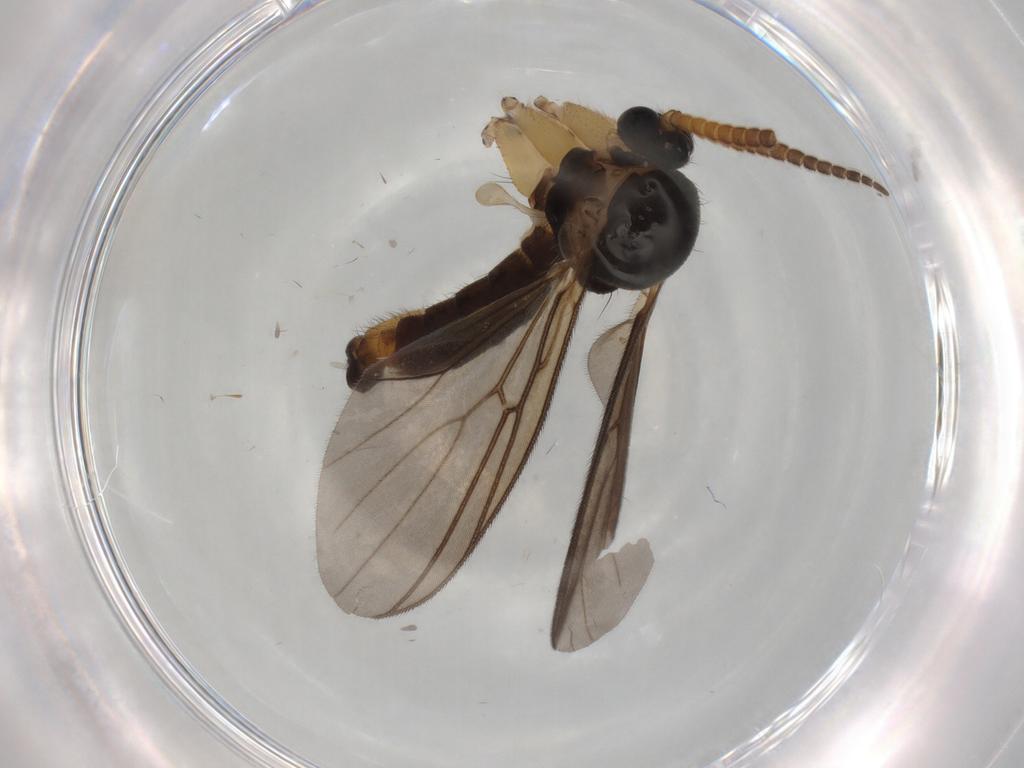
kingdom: Animalia
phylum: Arthropoda
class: Insecta
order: Diptera
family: Cecidomyiidae
